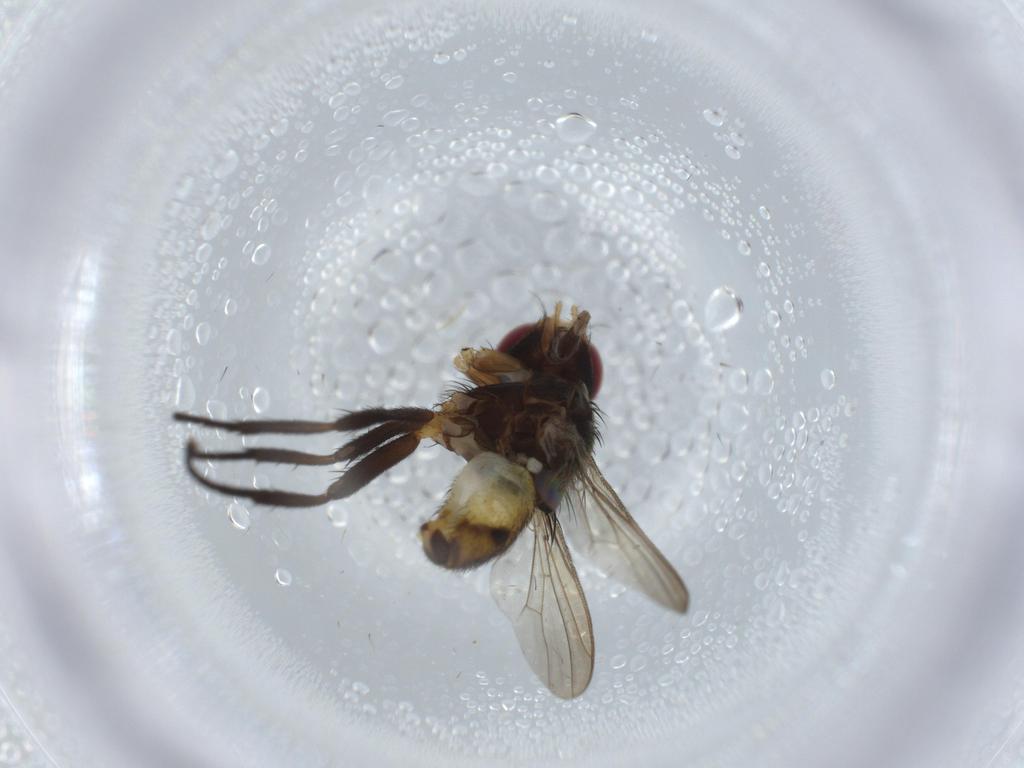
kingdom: Animalia
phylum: Arthropoda
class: Insecta
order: Diptera
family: Anthomyiidae
